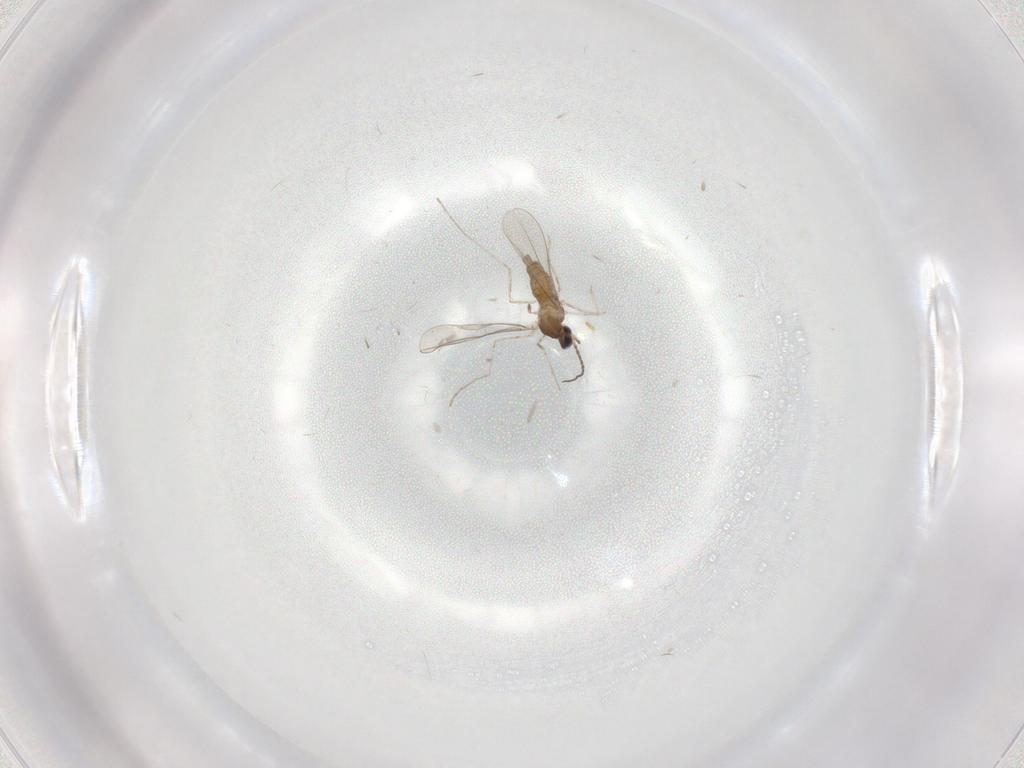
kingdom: Animalia
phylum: Arthropoda
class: Insecta
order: Diptera
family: Cecidomyiidae
